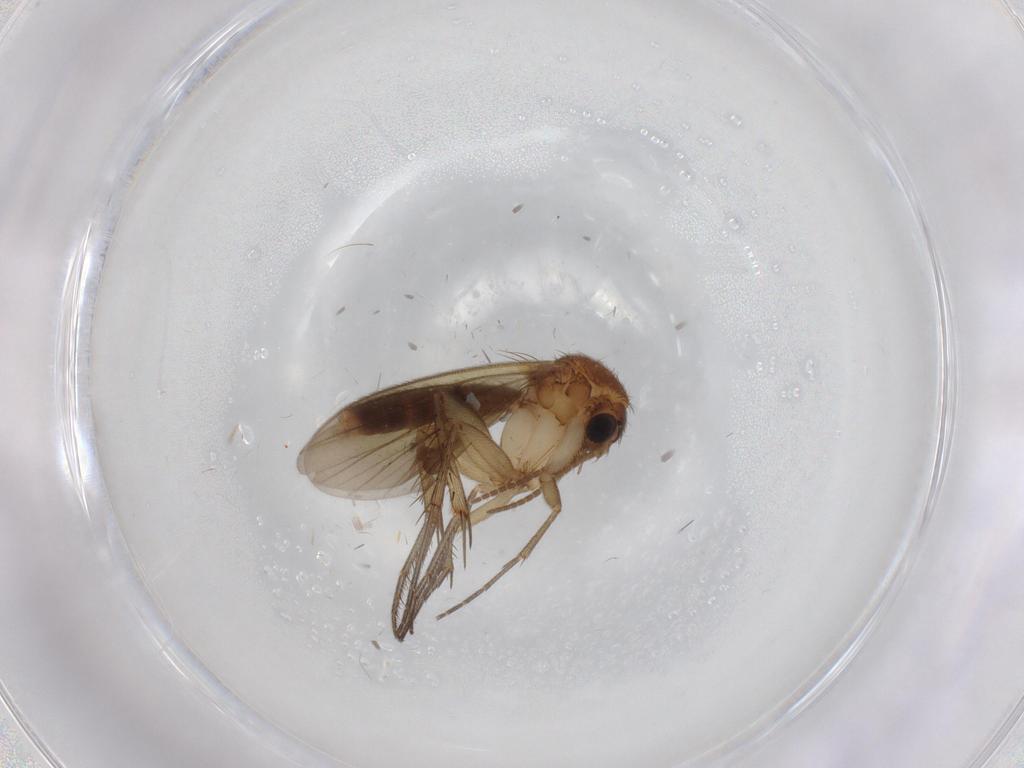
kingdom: Animalia
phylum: Arthropoda
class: Insecta
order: Diptera
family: Mycetophilidae
